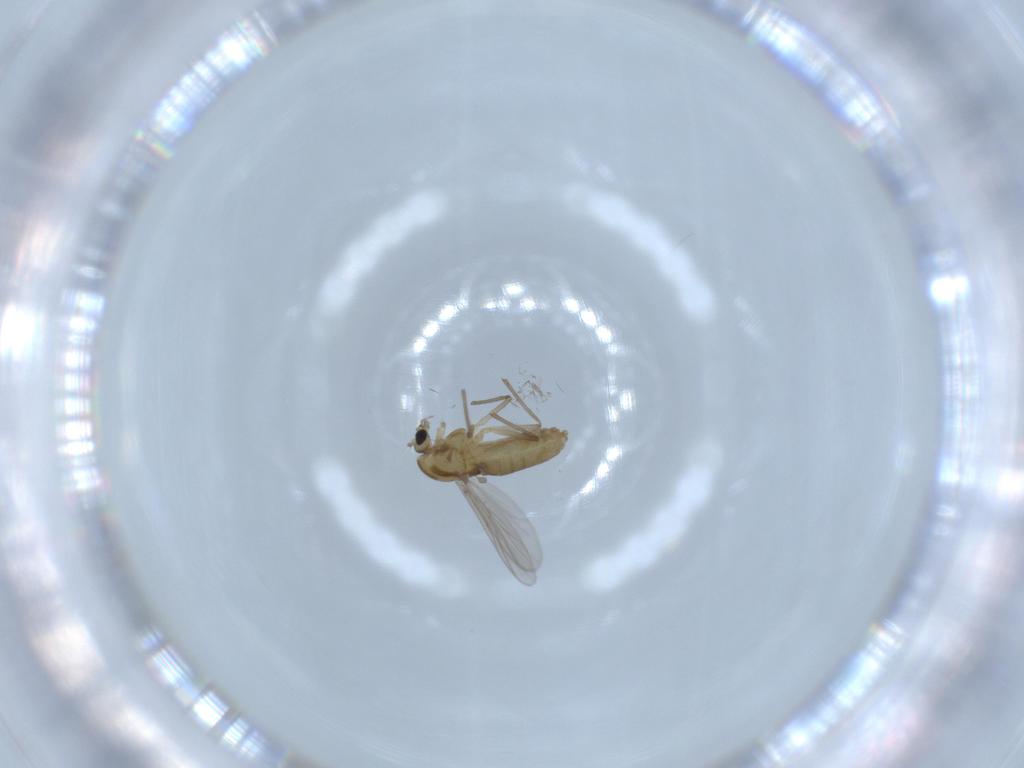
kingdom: Animalia
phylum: Arthropoda
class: Insecta
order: Diptera
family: Chironomidae
